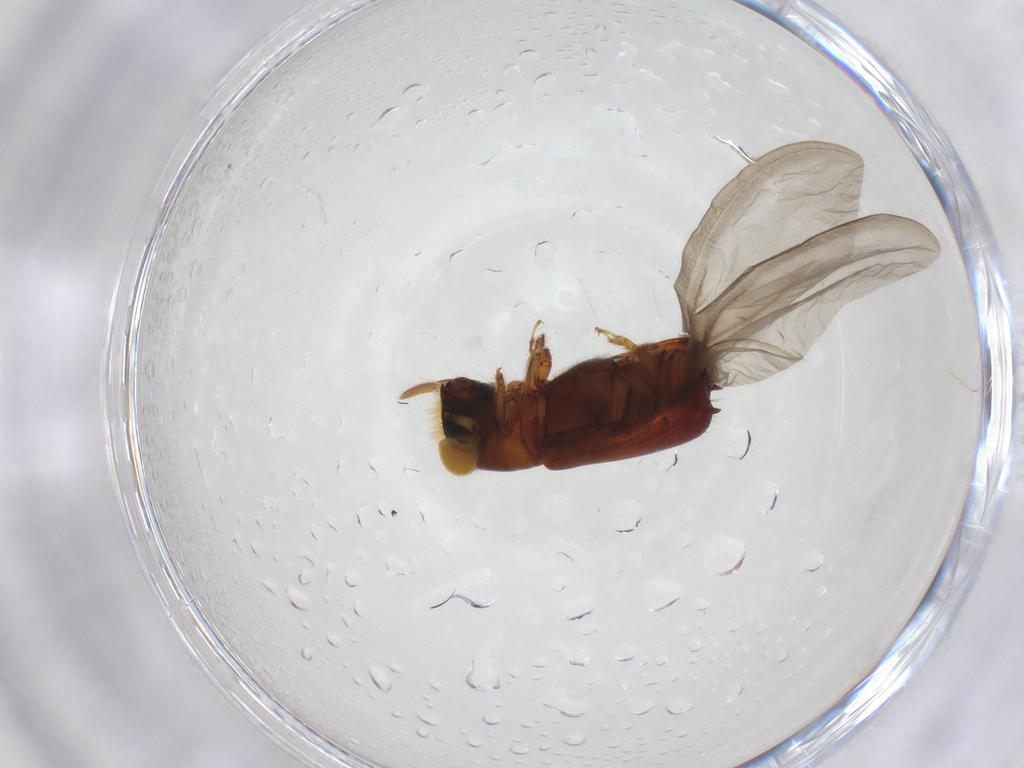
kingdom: Animalia
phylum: Arthropoda
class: Insecta
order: Coleoptera
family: Curculionidae
